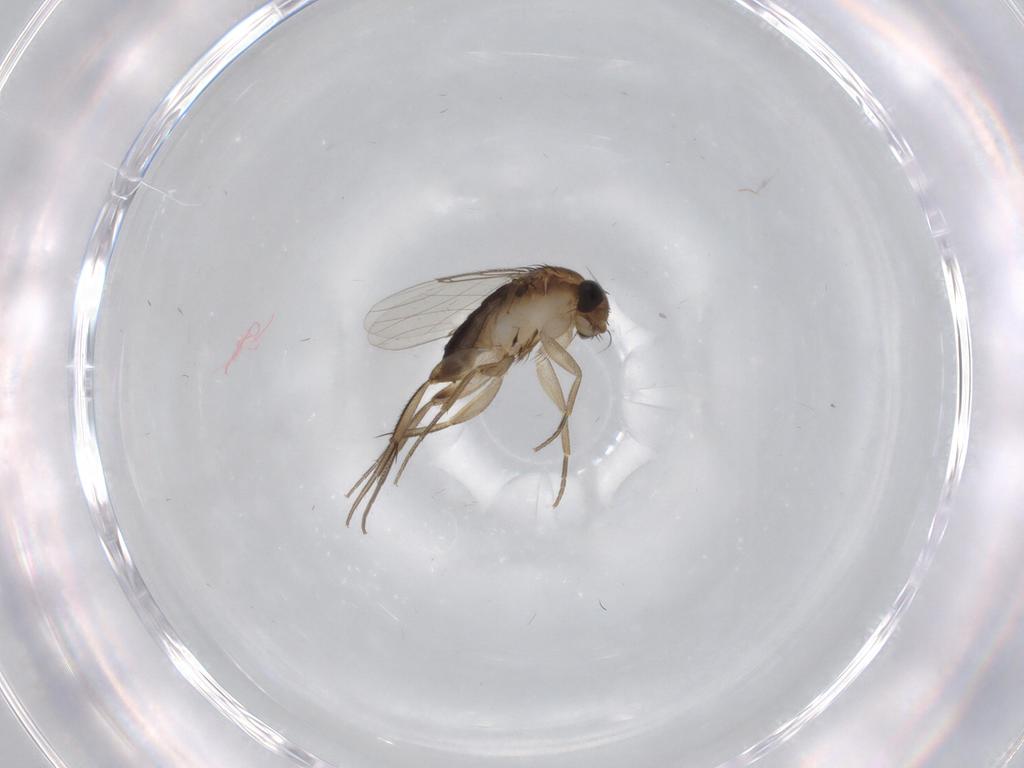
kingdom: Animalia
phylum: Arthropoda
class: Insecta
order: Diptera
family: Phoridae
